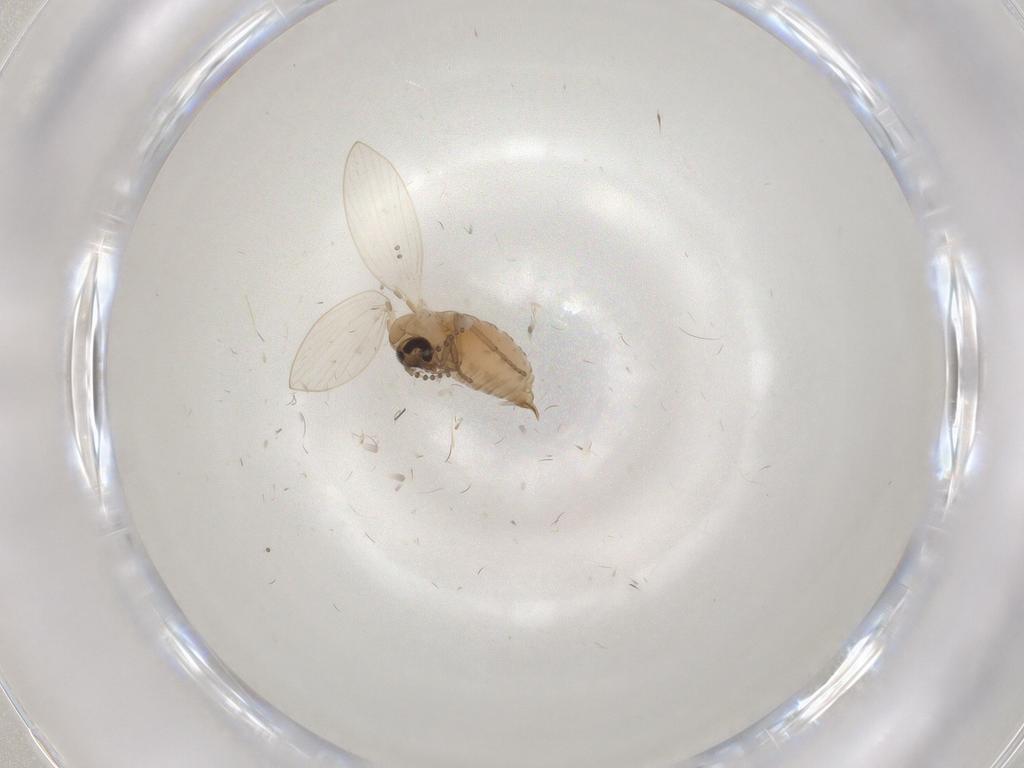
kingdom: Animalia
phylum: Arthropoda
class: Insecta
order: Diptera
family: Psychodidae
